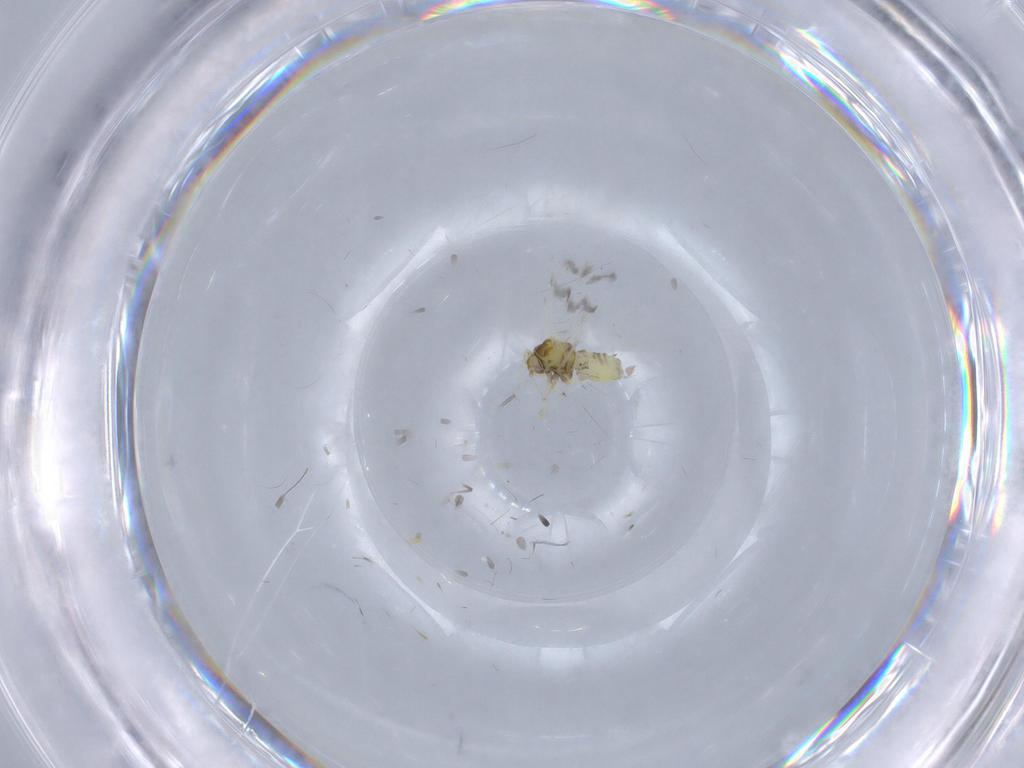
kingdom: Animalia
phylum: Arthropoda
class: Insecta
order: Hemiptera
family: Aleyrodidae
